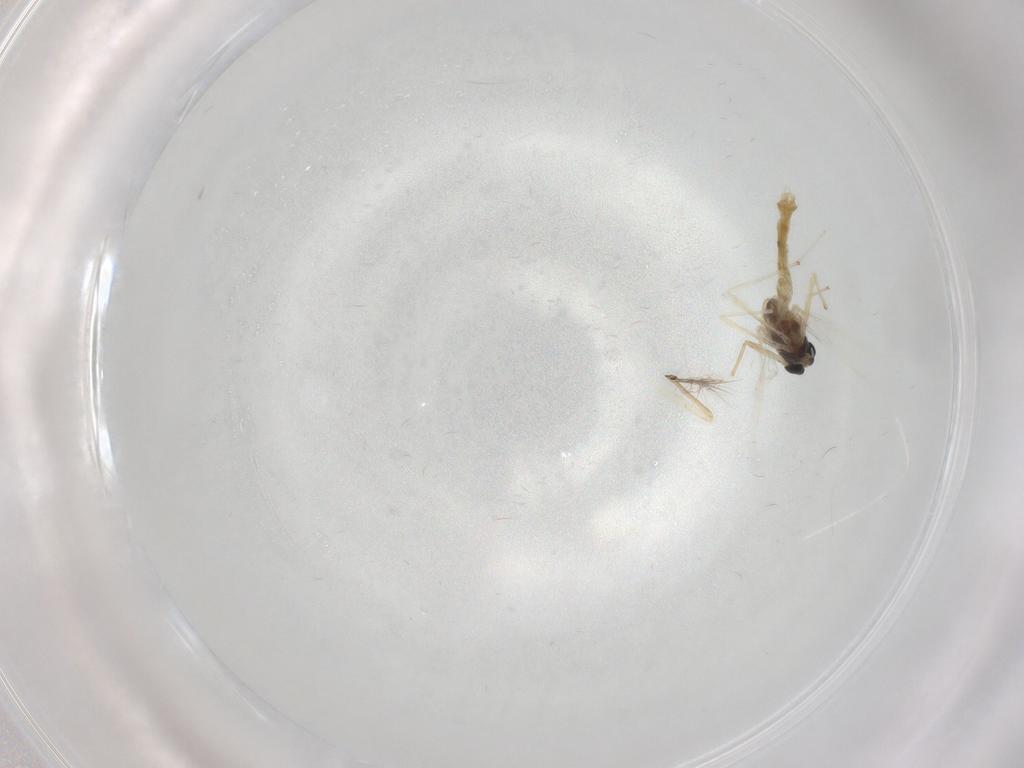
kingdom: Animalia
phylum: Arthropoda
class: Insecta
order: Diptera
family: Chironomidae
